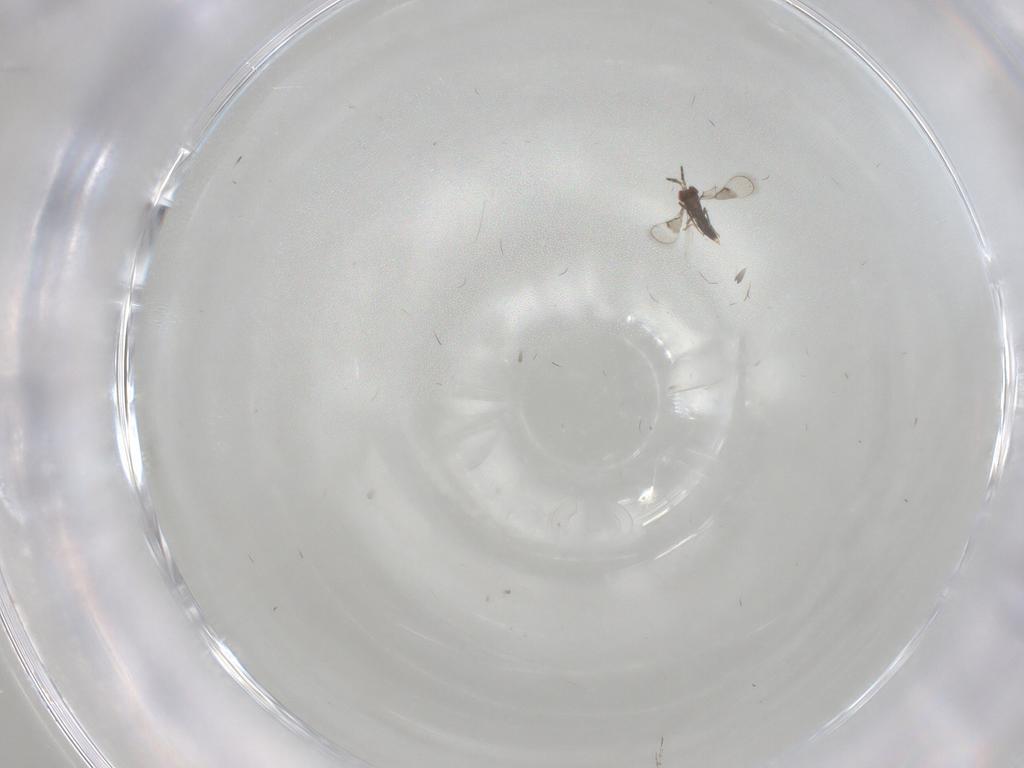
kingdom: Animalia
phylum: Arthropoda
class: Insecta
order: Hymenoptera
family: Trichogrammatidae
